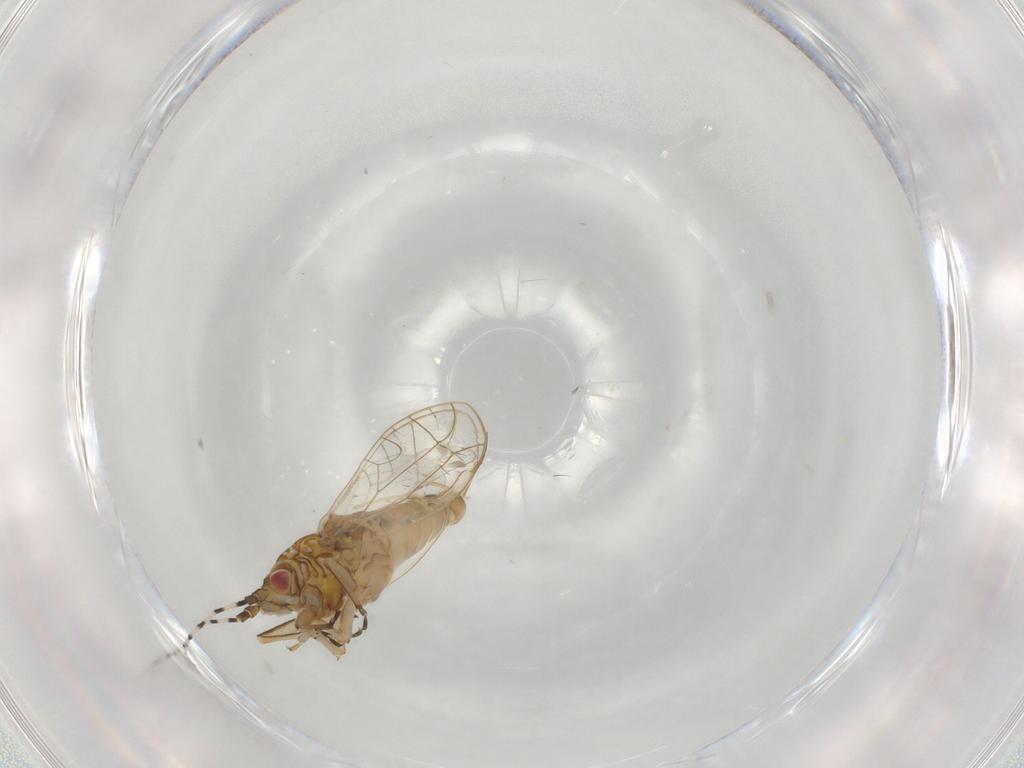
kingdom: Animalia
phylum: Arthropoda
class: Insecta
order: Hemiptera
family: Carsidaridae
